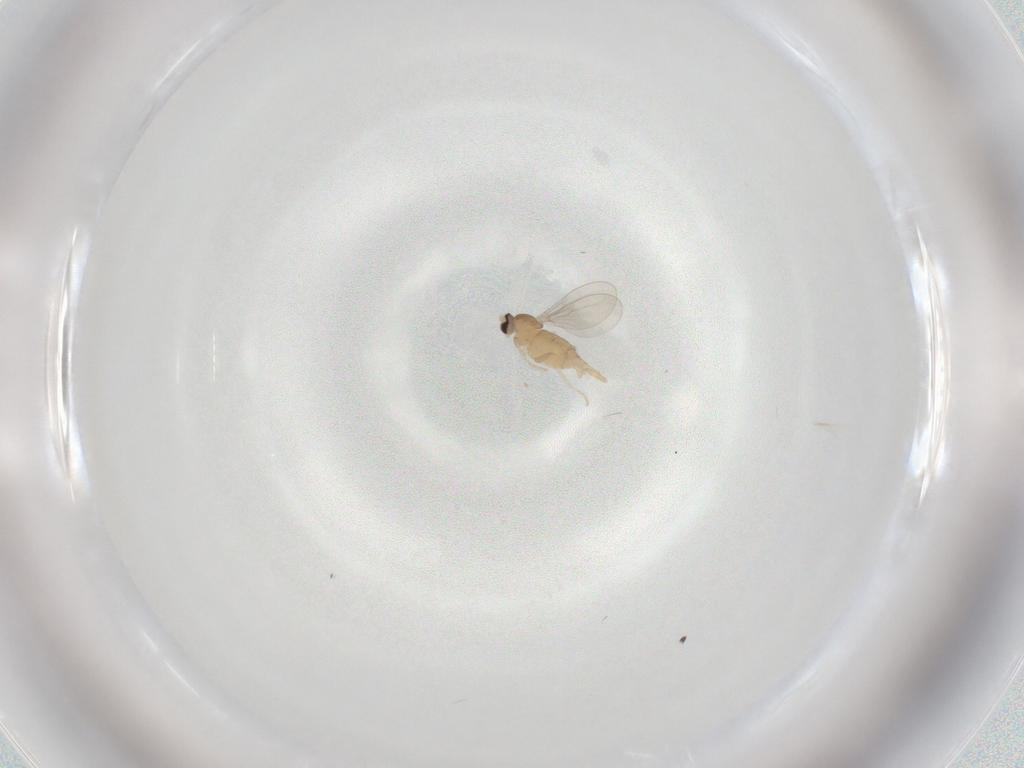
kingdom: Animalia
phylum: Arthropoda
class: Insecta
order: Diptera
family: Cecidomyiidae
